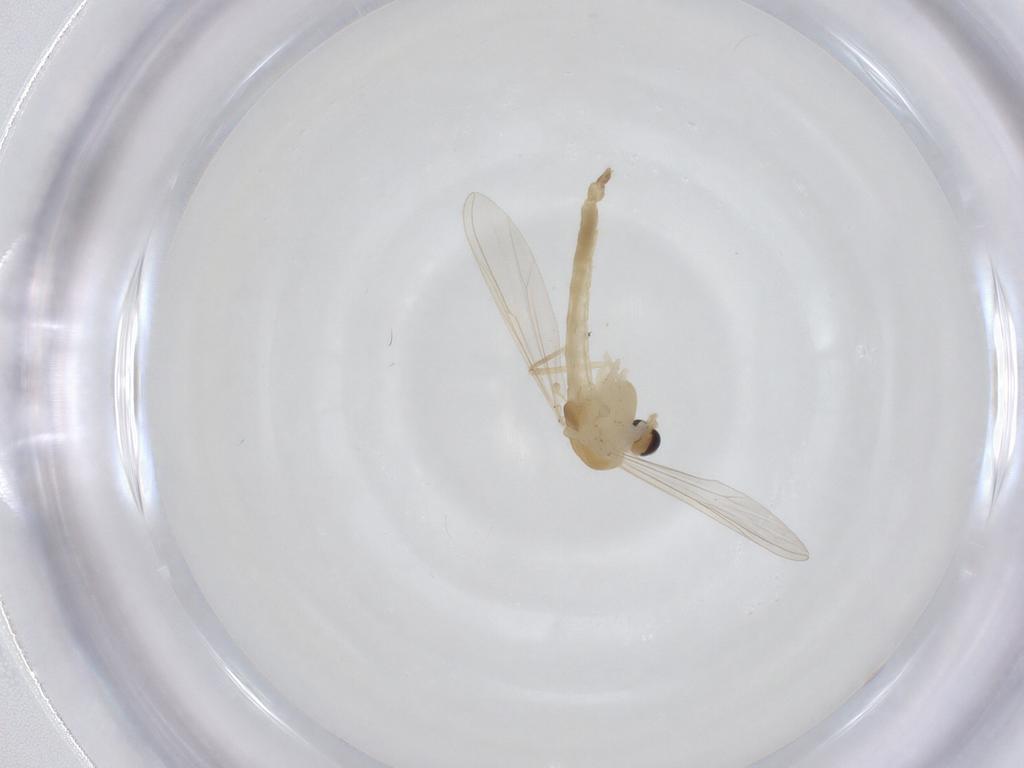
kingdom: Animalia
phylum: Arthropoda
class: Insecta
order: Diptera
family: Chironomidae
